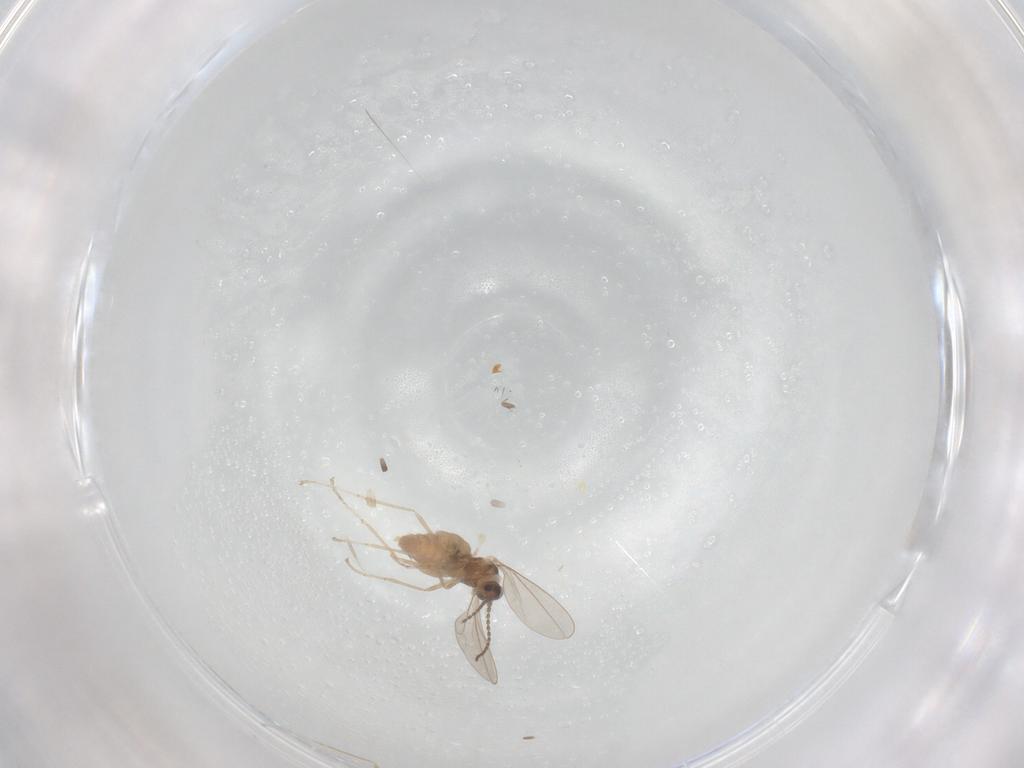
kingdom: Animalia
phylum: Arthropoda
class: Insecta
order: Diptera
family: Cecidomyiidae
